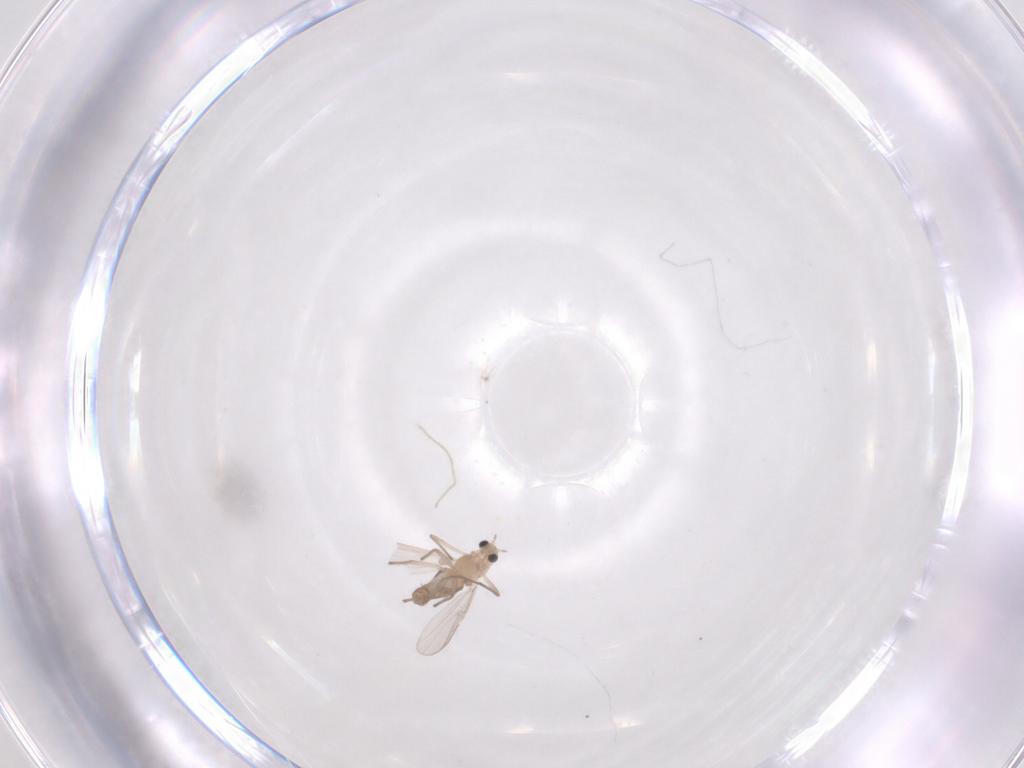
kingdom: Animalia
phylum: Arthropoda
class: Insecta
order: Diptera
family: Chironomidae
